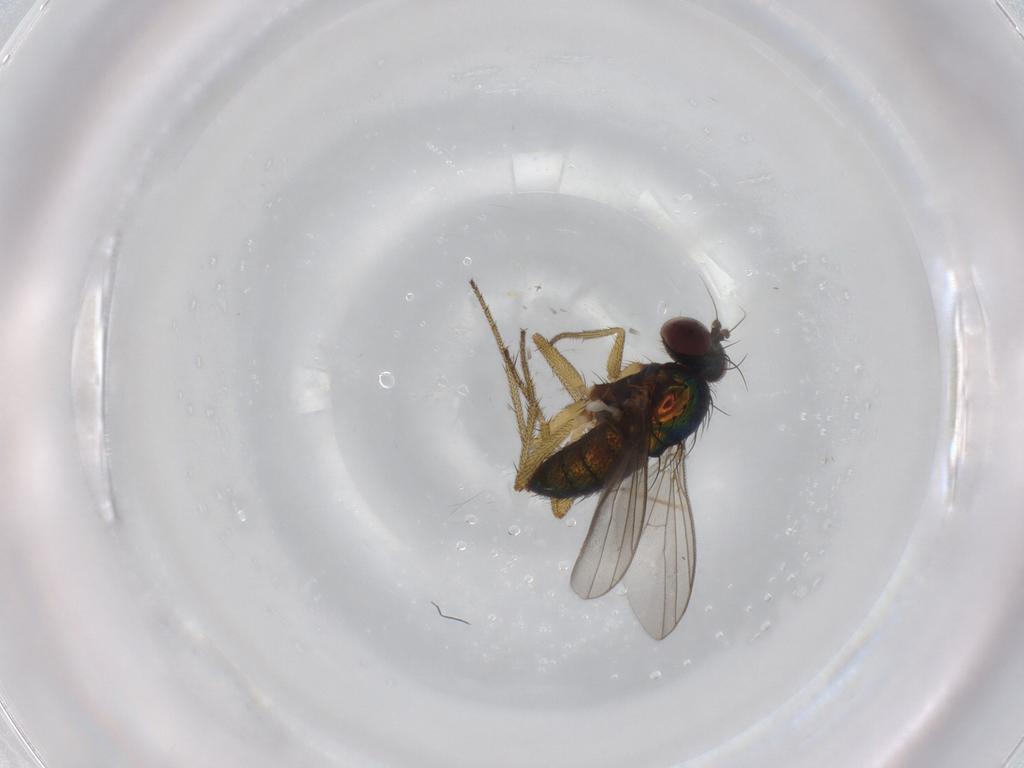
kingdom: Animalia
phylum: Arthropoda
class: Insecta
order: Diptera
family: Dolichopodidae
